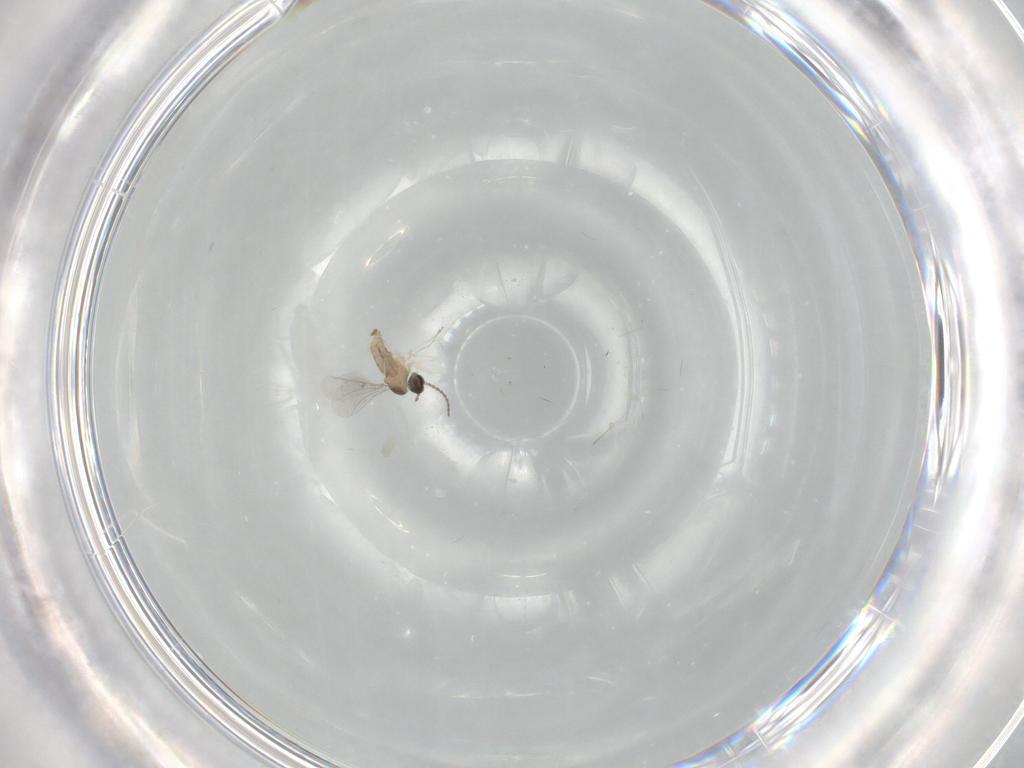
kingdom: Animalia
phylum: Arthropoda
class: Insecta
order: Diptera
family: Cecidomyiidae
